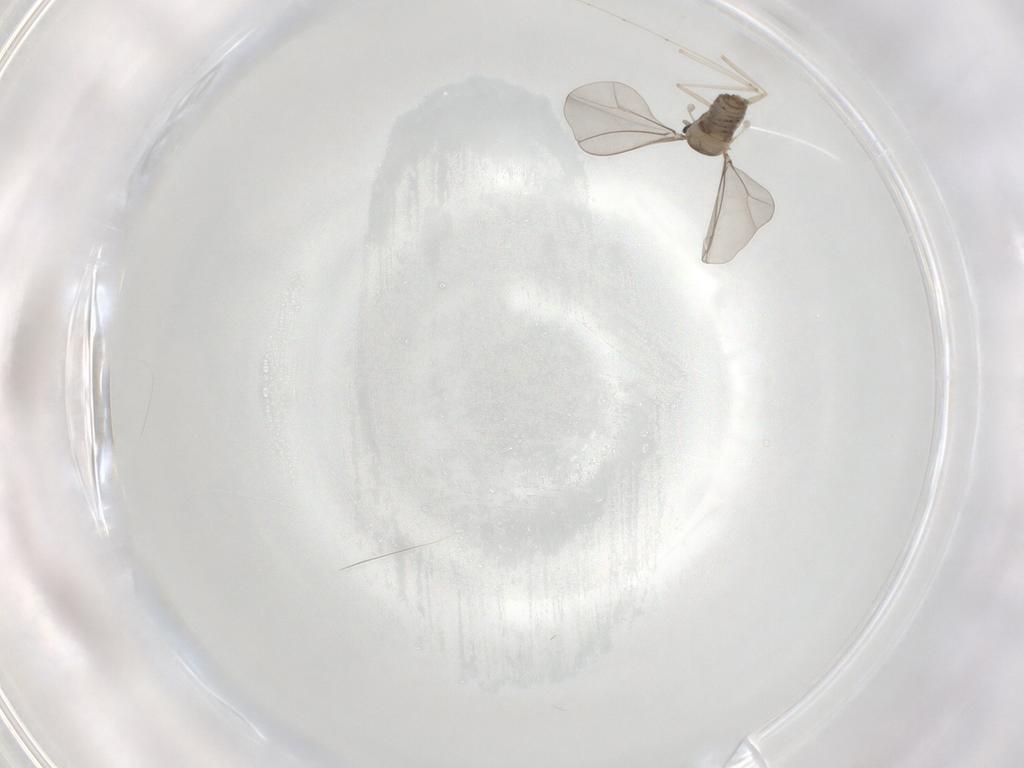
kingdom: Animalia
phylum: Arthropoda
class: Insecta
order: Diptera
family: Cecidomyiidae
